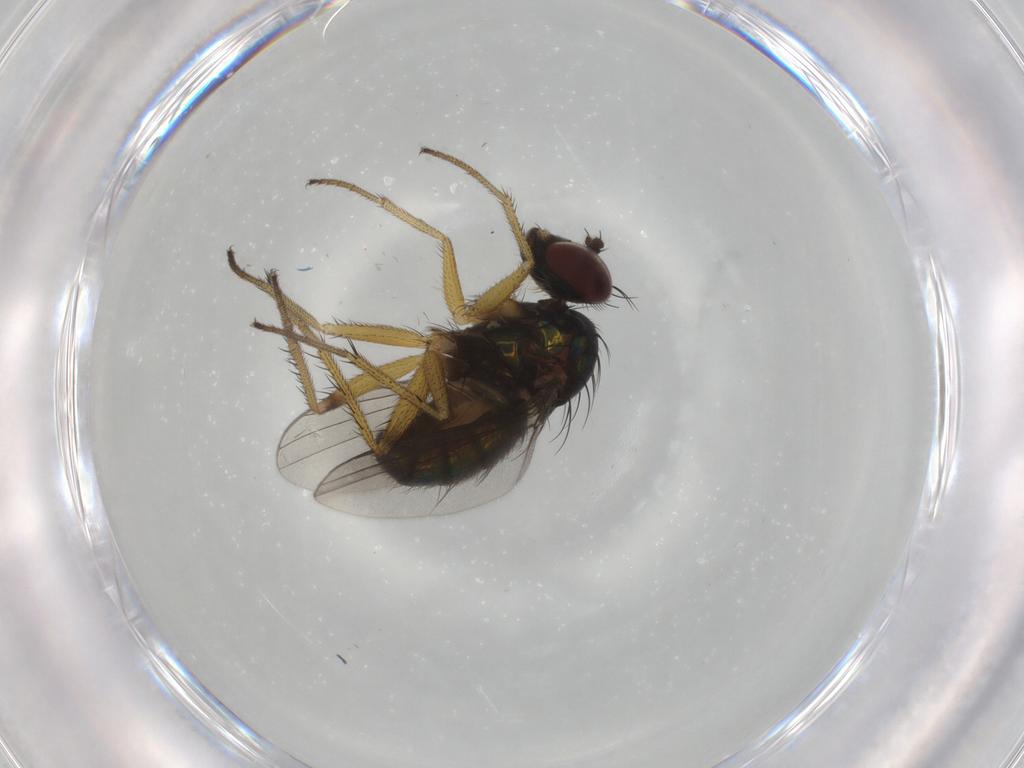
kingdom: Animalia
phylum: Arthropoda
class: Insecta
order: Diptera
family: Dolichopodidae
